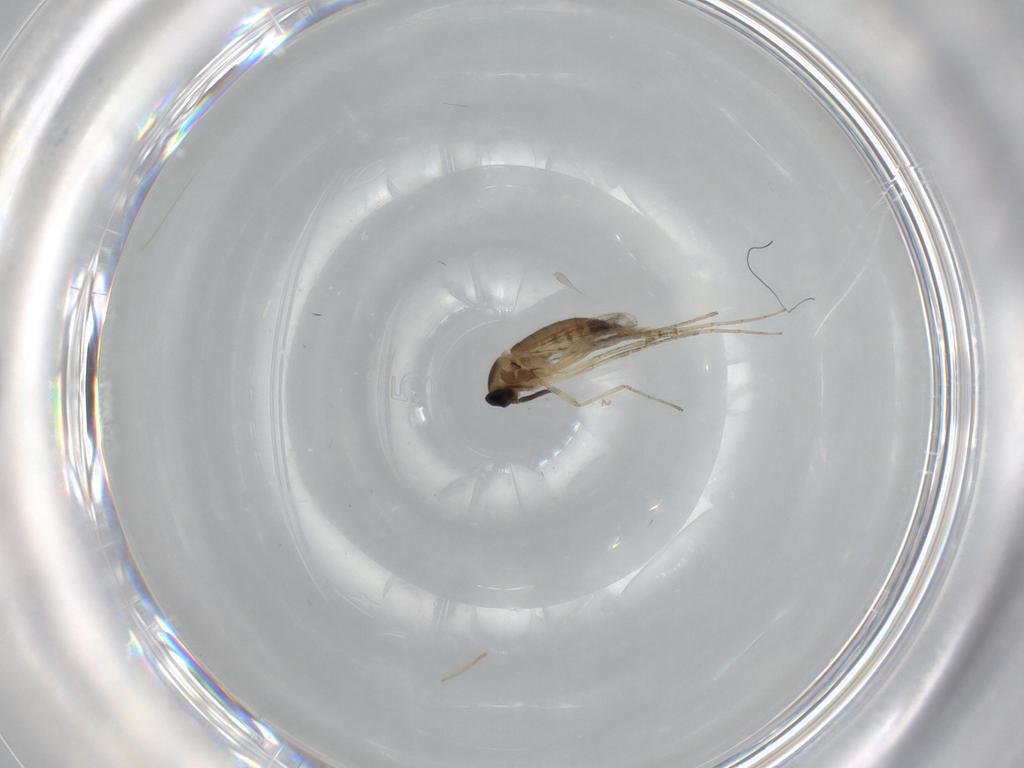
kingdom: Animalia
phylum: Arthropoda
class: Insecta
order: Diptera
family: Cecidomyiidae
